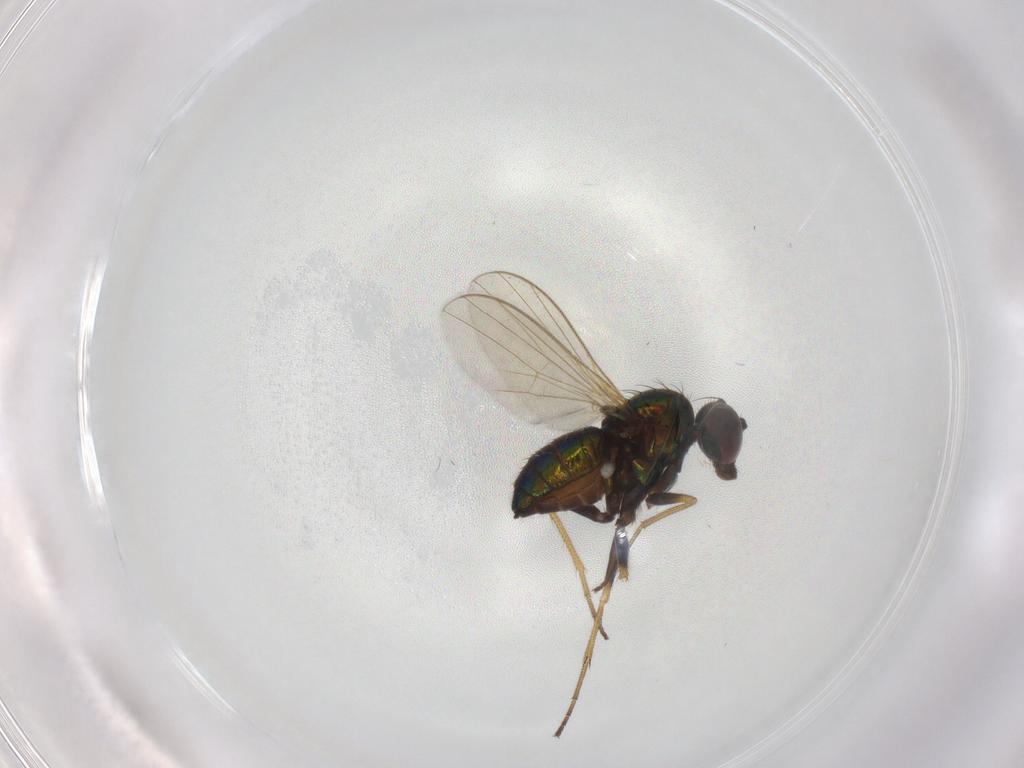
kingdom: Animalia
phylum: Arthropoda
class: Insecta
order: Diptera
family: Dolichopodidae
